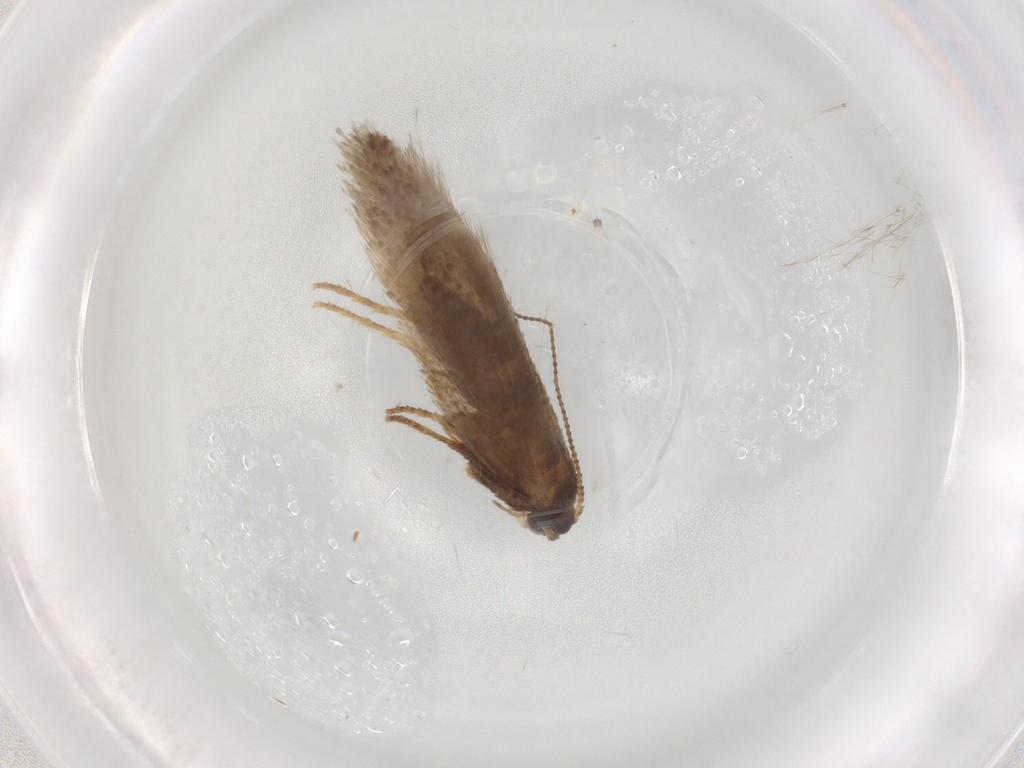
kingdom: Animalia
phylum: Arthropoda
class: Insecta
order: Lepidoptera
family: Nepticulidae
